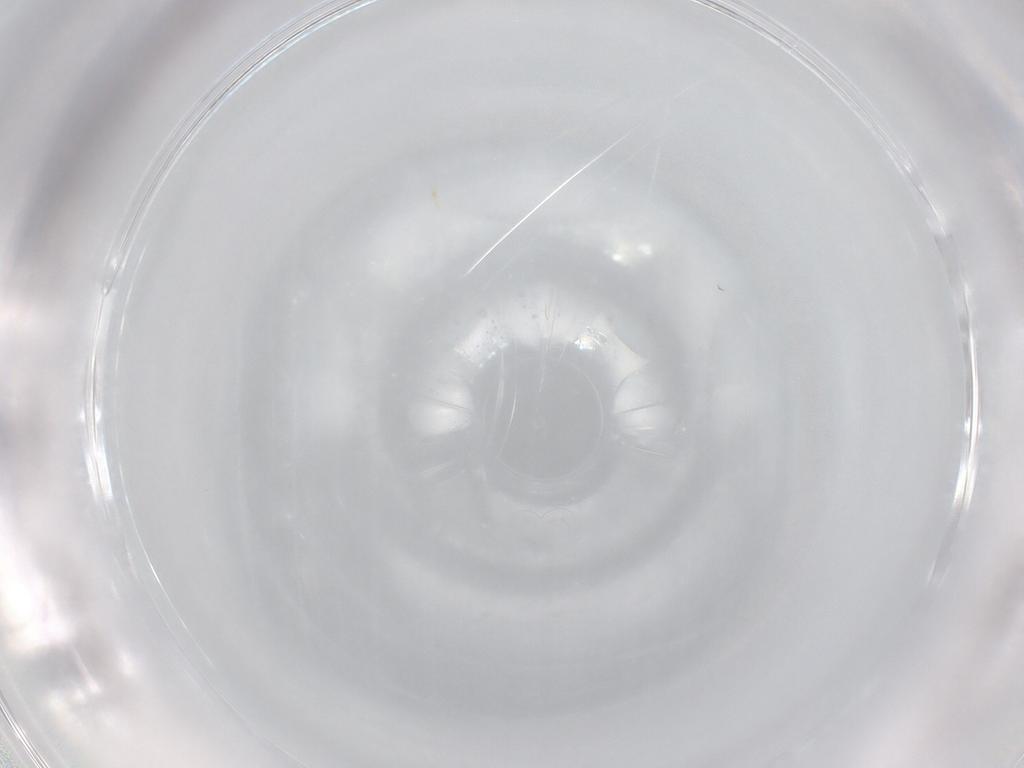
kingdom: Animalia
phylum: Arthropoda
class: Collembola
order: Entomobryomorpha
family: Entomobryidae
